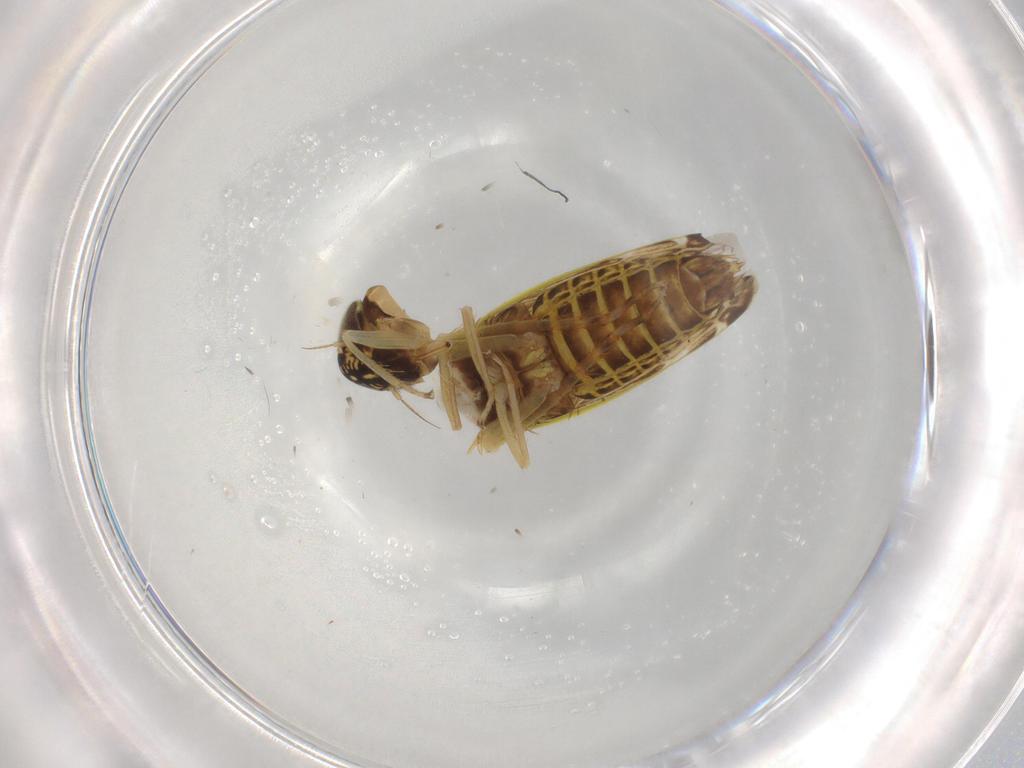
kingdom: Animalia
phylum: Arthropoda
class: Insecta
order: Hemiptera
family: Cicadellidae
